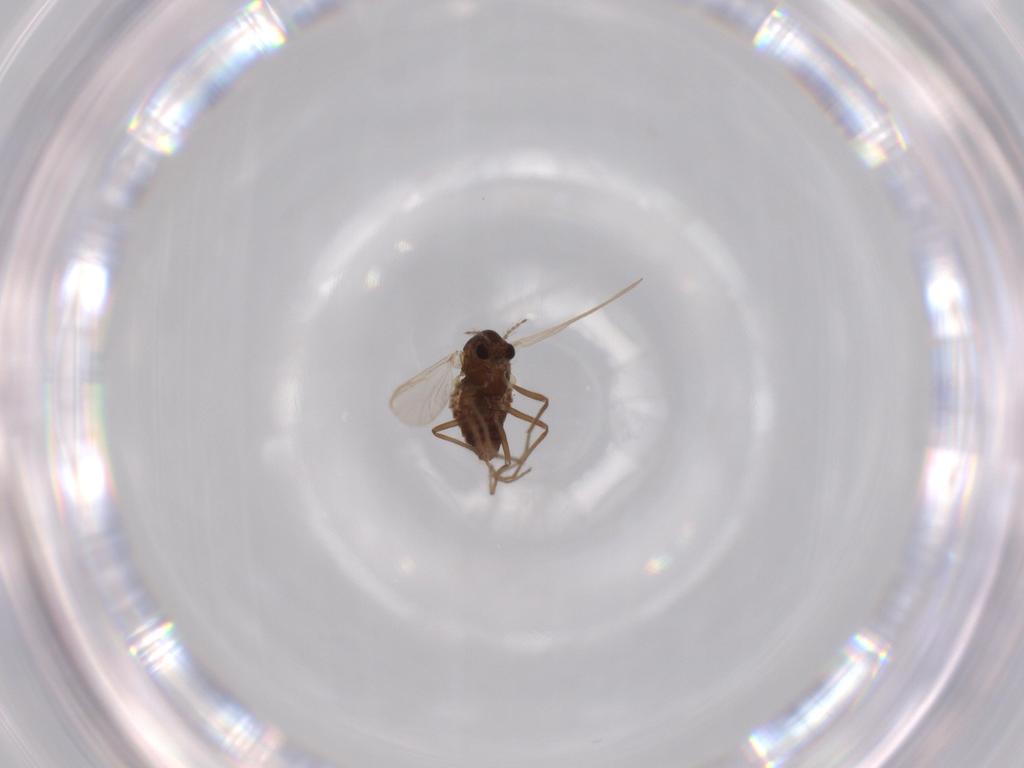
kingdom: Animalia
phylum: Arthropoda
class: Insecta
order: Diptera
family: Chironomidae
